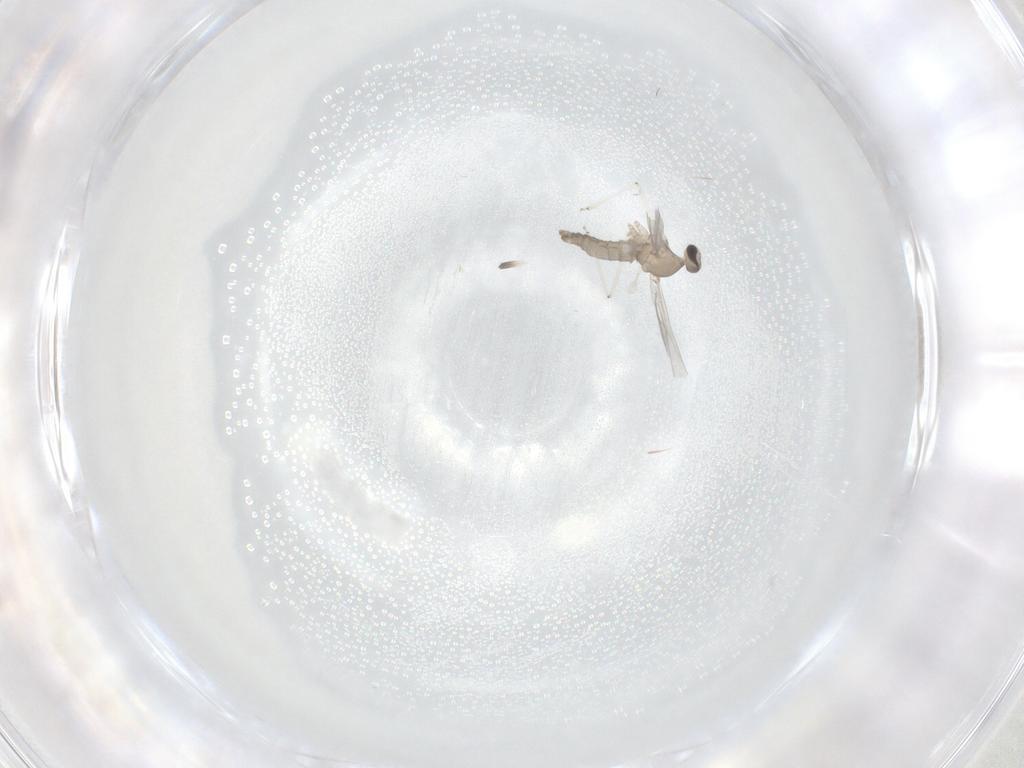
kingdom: Animalia
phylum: Arthropoda
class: Insecta
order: Diptera
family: Cecidomyiidae
